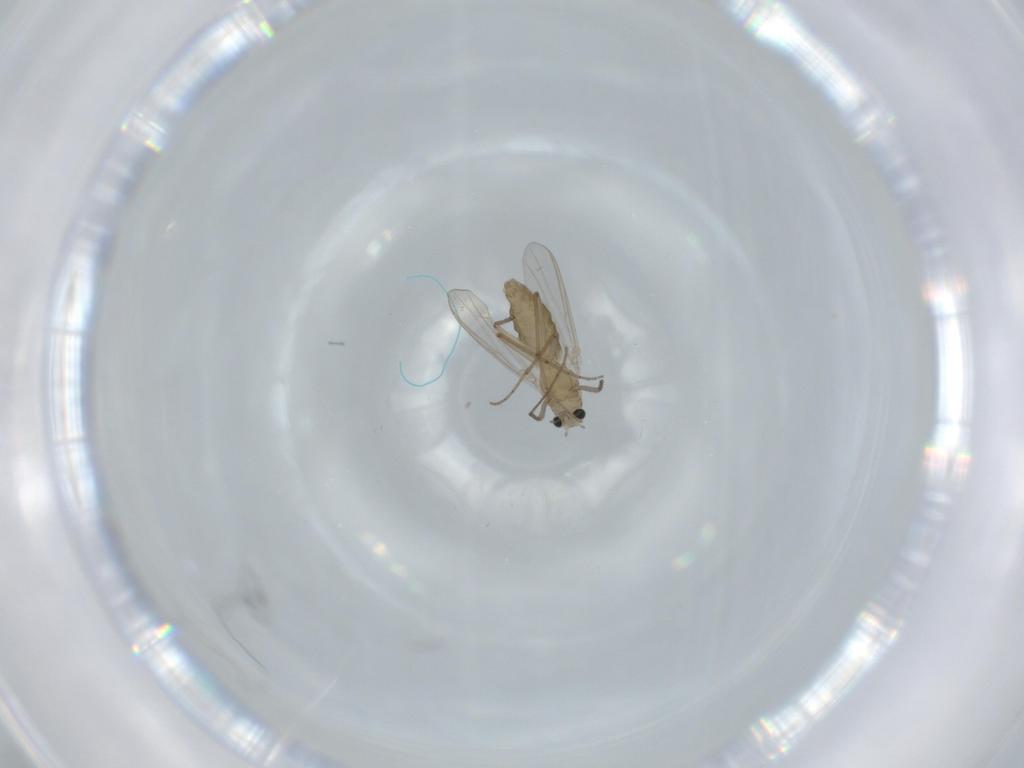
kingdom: Animalia
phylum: Arthropoda
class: Insecta
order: Diptera
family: Chironomidae
